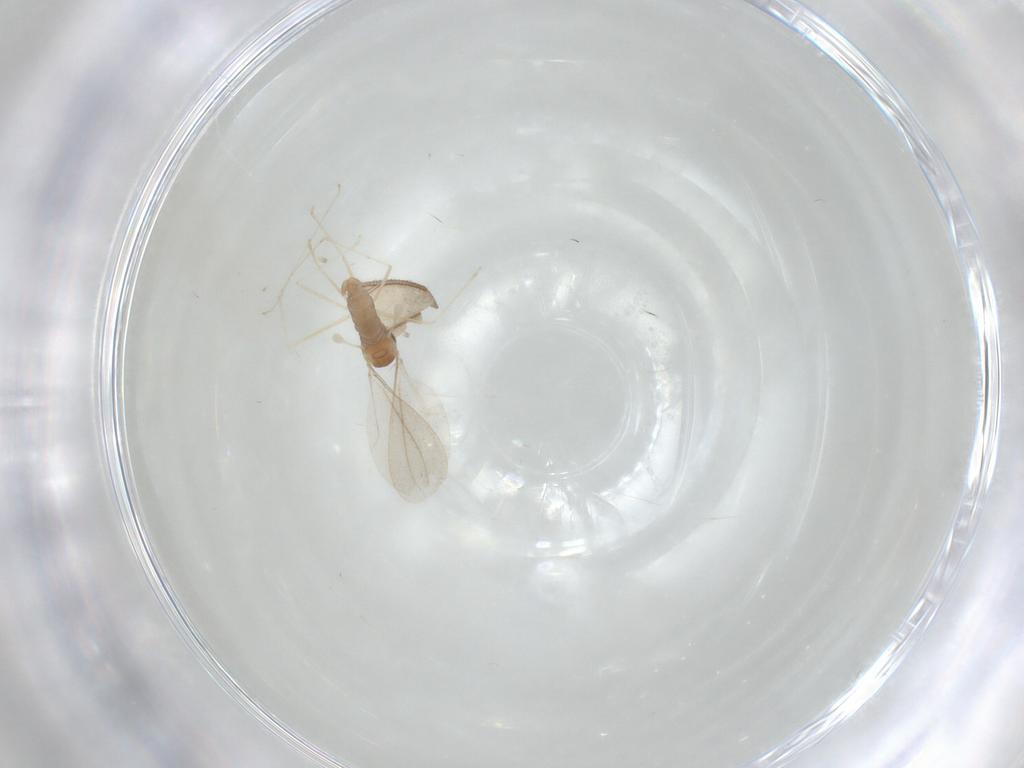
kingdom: Animalia
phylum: Arthropoda
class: Insecta
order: Diptera
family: Cecidomyiidae
